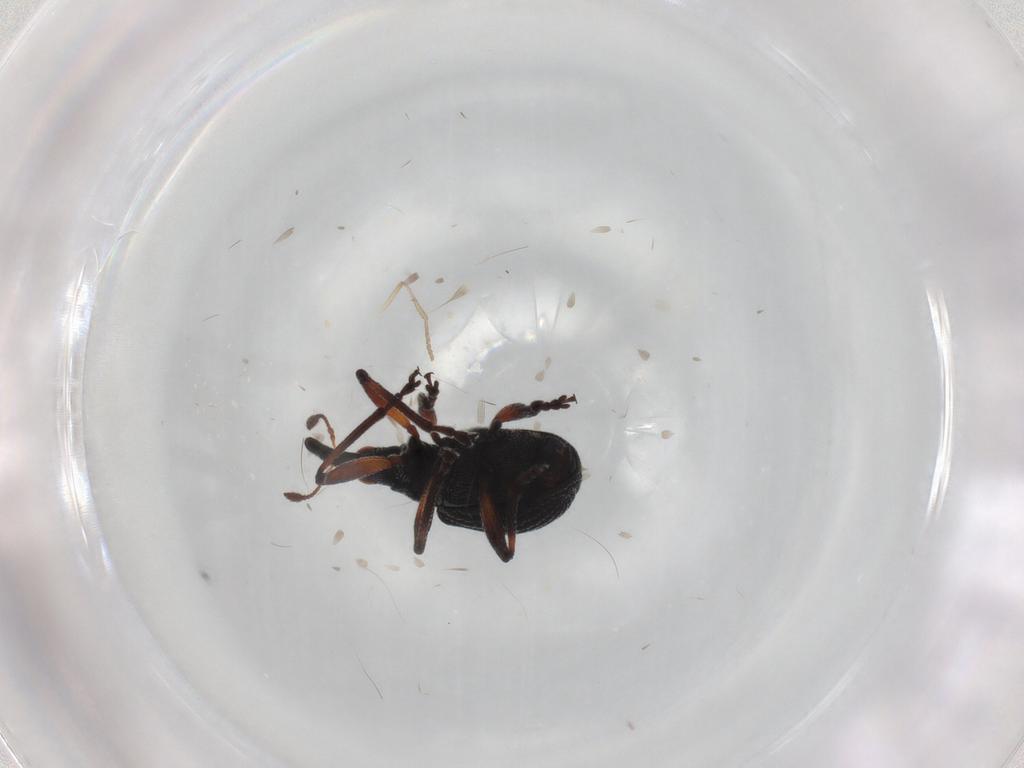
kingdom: Animalia
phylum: Arthropoda
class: Insecta
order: Coleoptera
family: Brentidae
